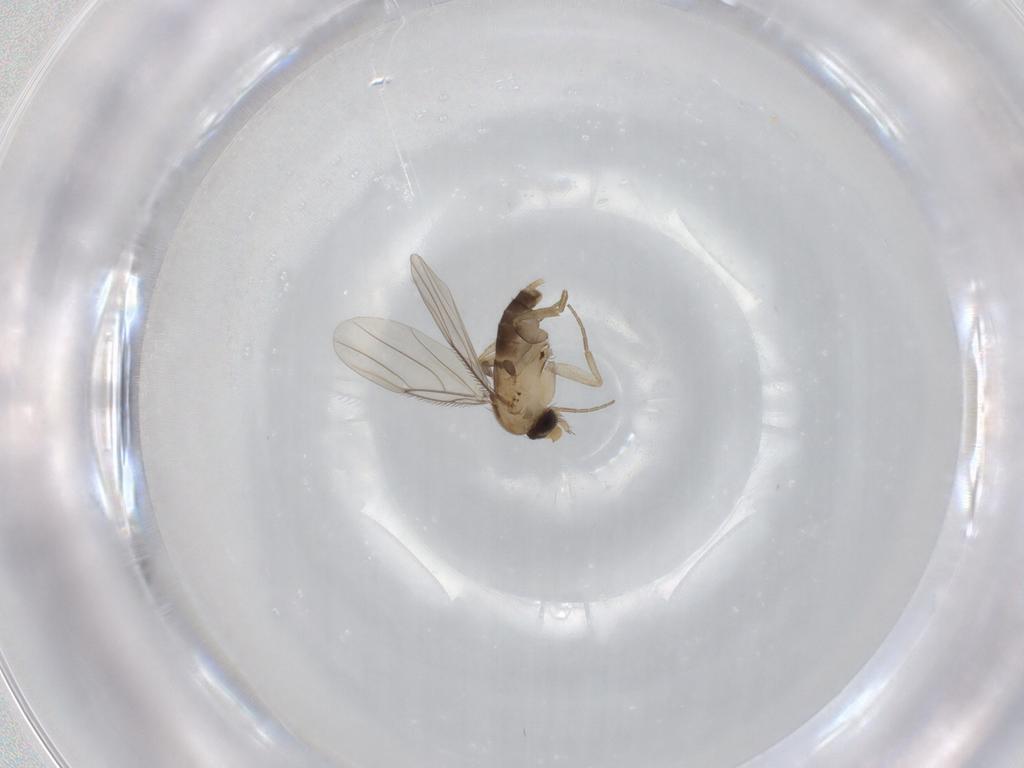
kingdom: Animalia
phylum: Arthropoda
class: Insecta
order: Diptera
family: Phoridae
